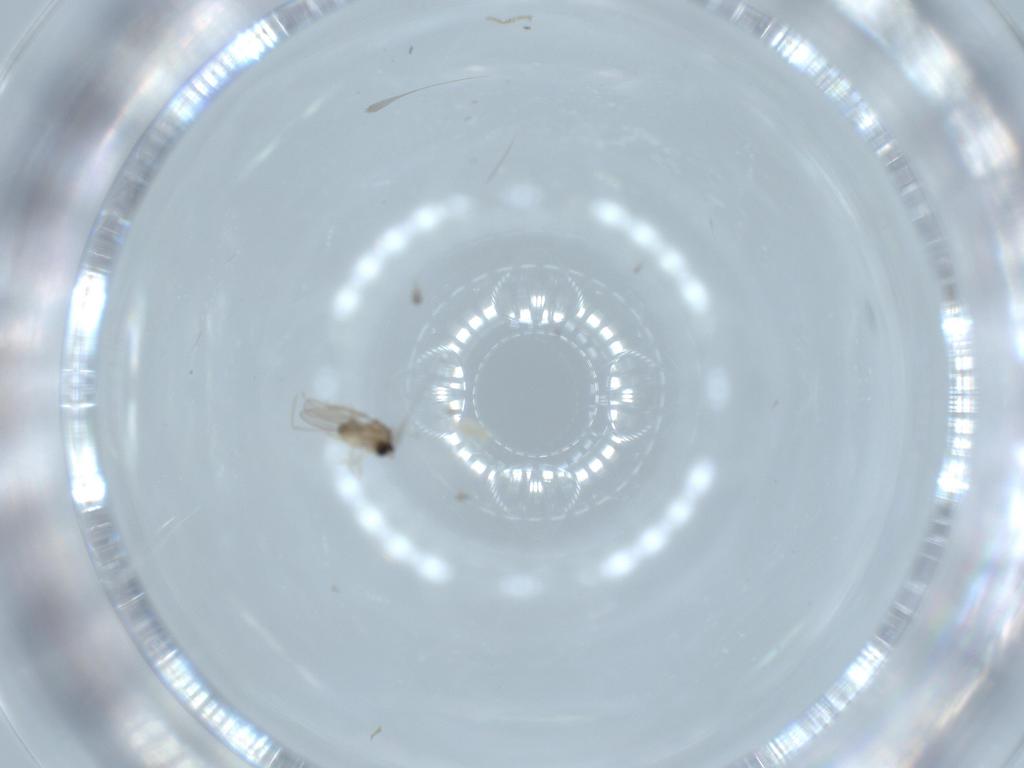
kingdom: Animalia
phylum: Arthropoda
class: Insecta
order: Diptera
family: Cecidomyiidae
